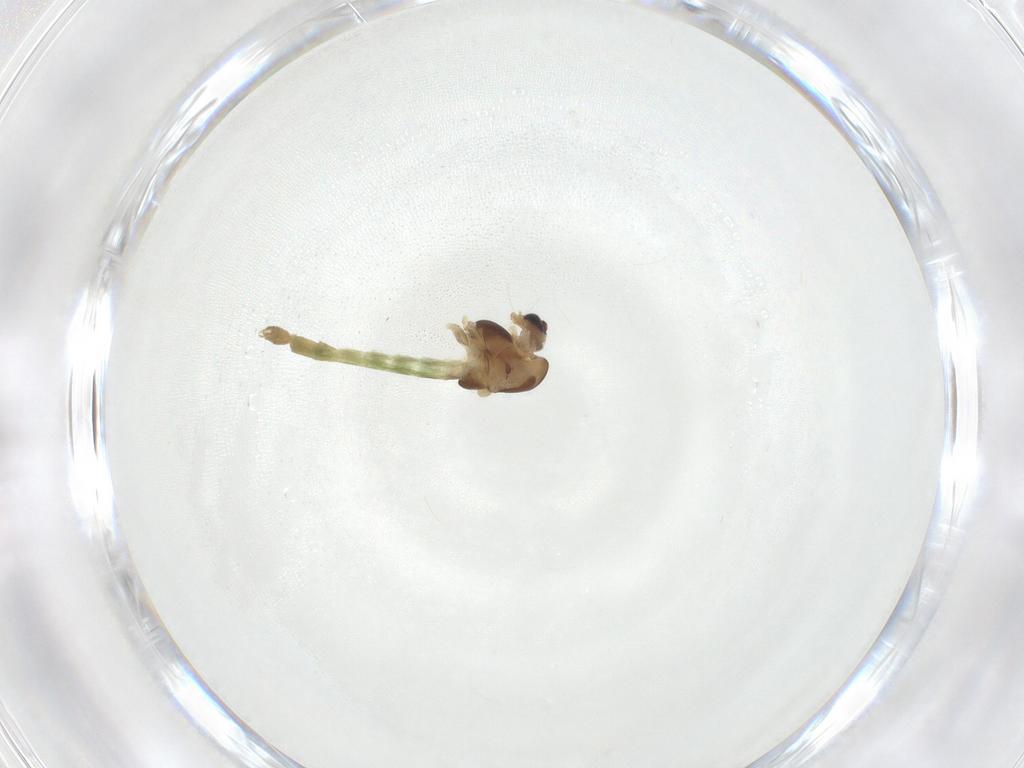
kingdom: Animalia
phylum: Arthropoda
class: Insecta
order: Diptera
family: Chironomidae
